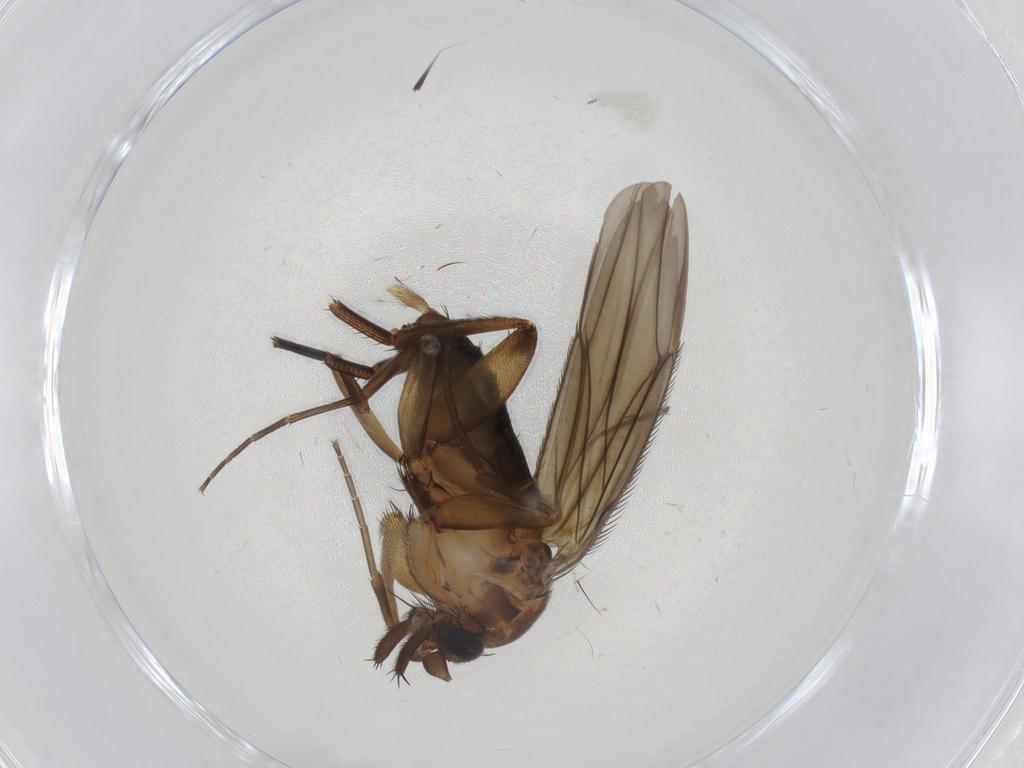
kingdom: Animalia
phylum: Arthropoda
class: Insecta
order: Diptera
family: Phoridae
